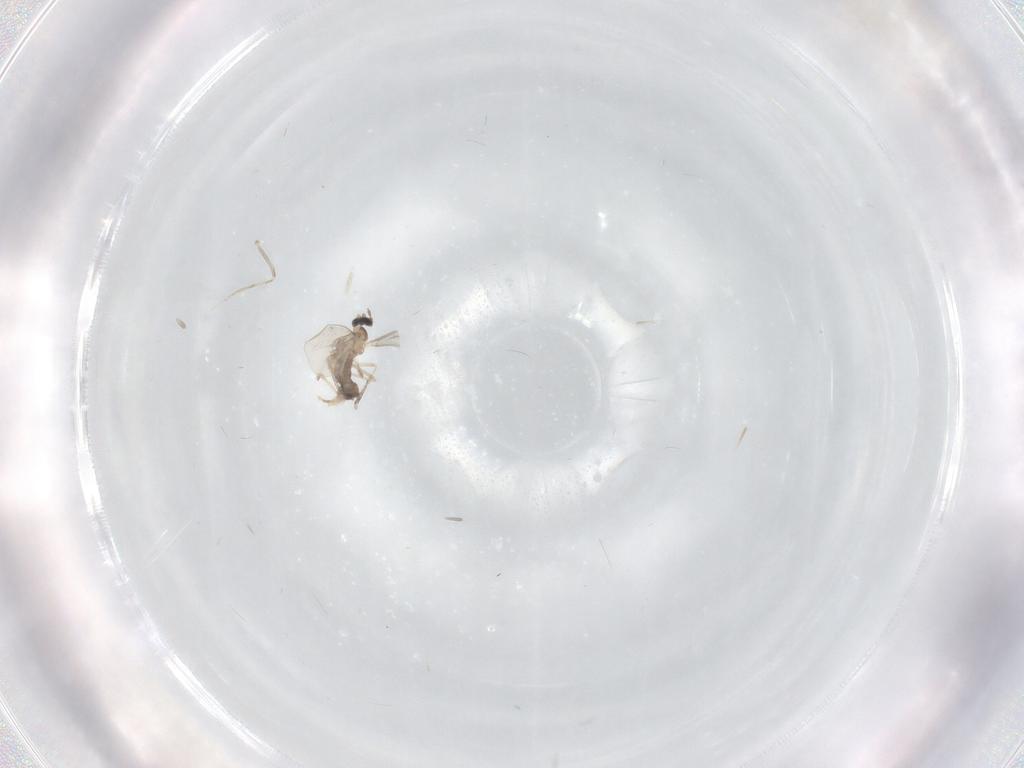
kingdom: Animalia
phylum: Arthropoda
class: Insecta
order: Diptera
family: Cecidomyiidae
